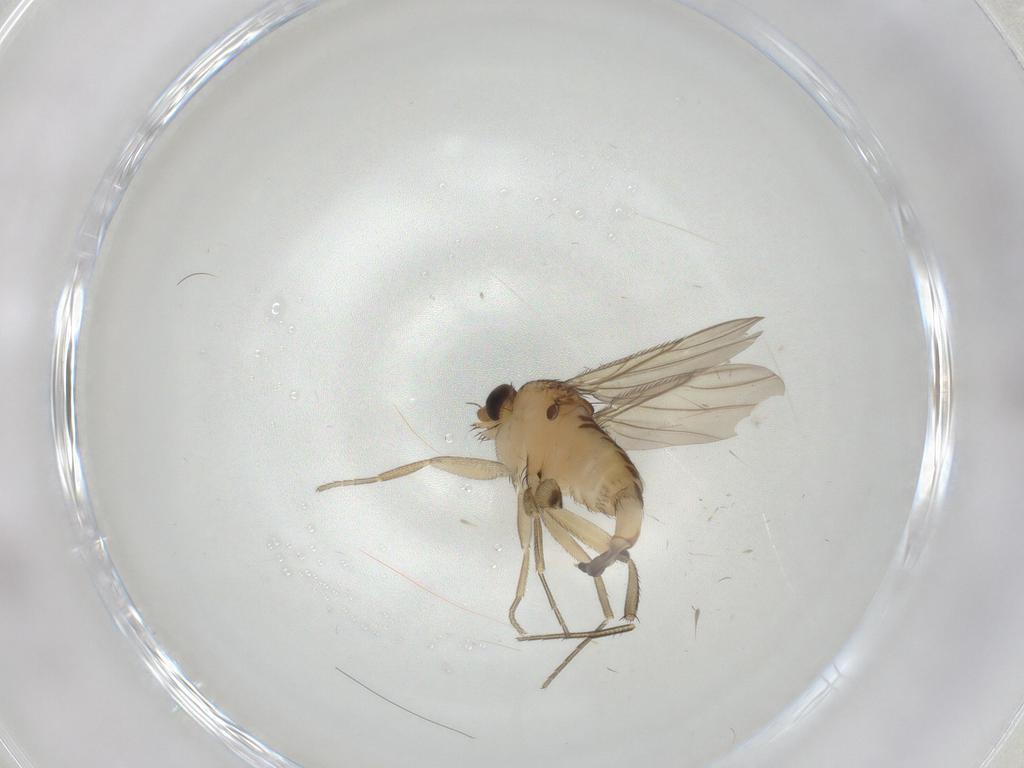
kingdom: Animalia
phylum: Arthropoda
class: Insecta
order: Diptera
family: Phoridae
